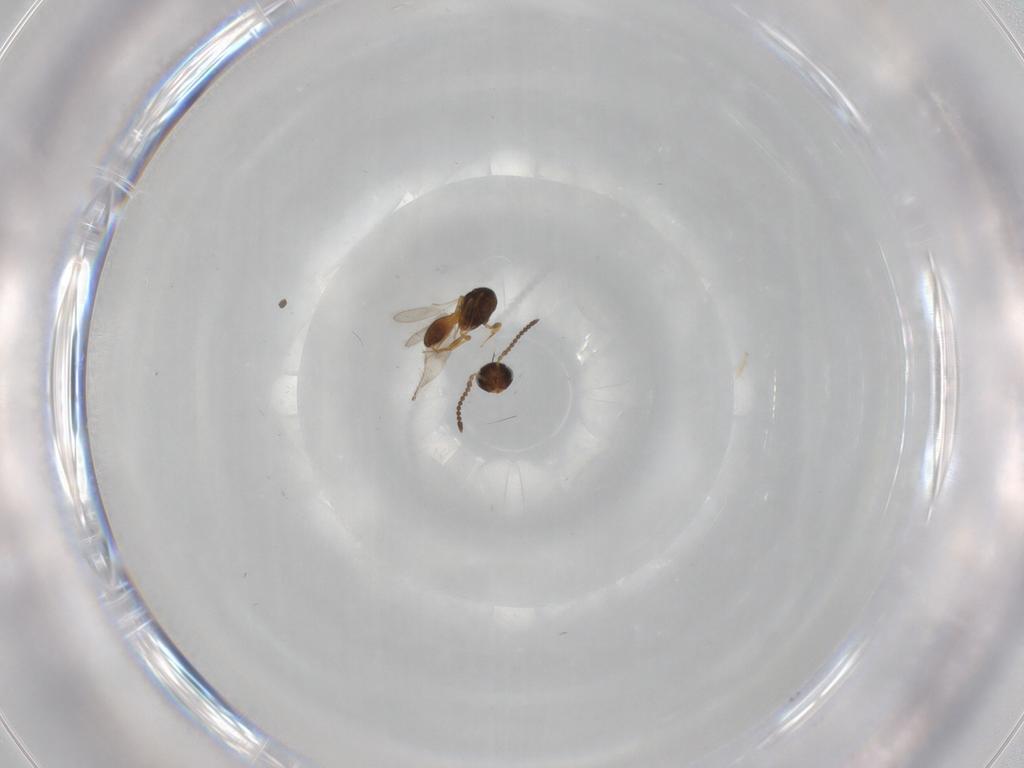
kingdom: Animalia
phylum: Arthropoda
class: Insecta
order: Hymenoptera
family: Scelionidae
